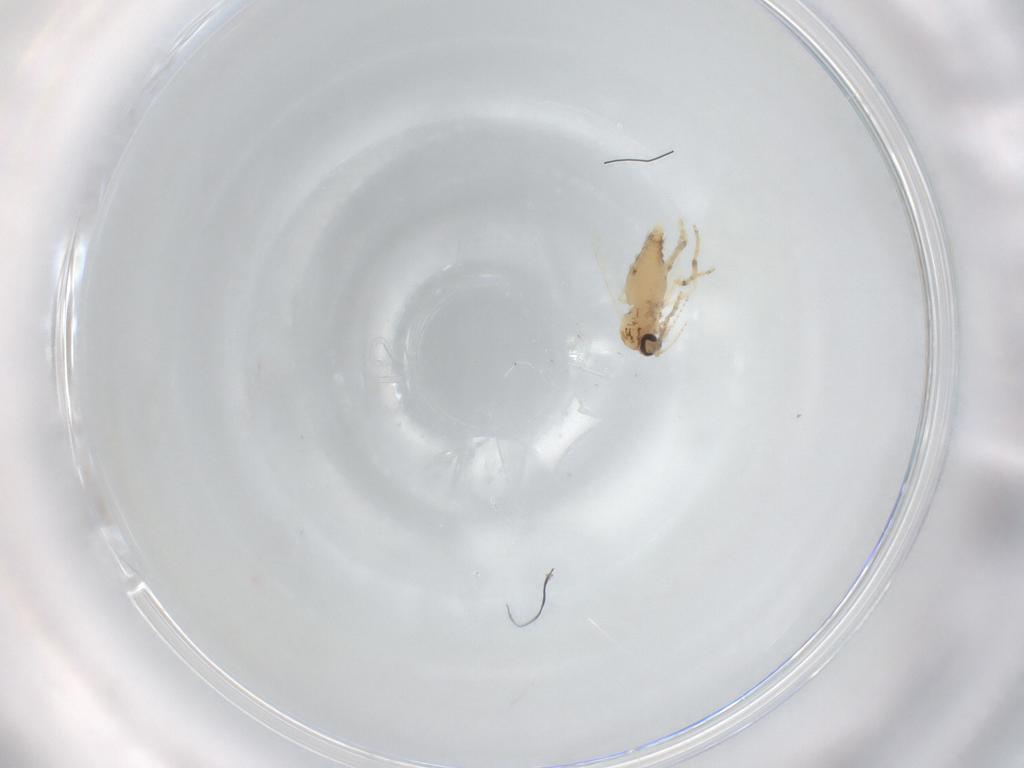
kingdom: Animalia
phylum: Arthropoda
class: Insecta
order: Diptera
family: Ceratopogonidae
